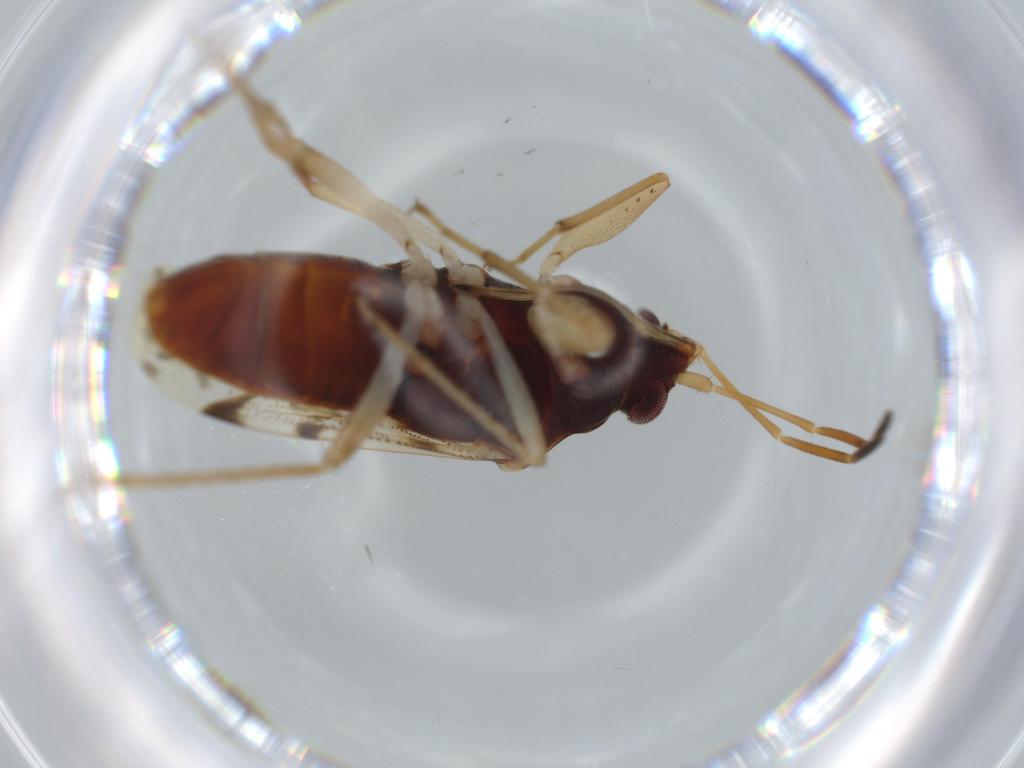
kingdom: Animalia
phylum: Arthropoda
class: Insecta
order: Hemiptera
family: Rhyparochromidae
